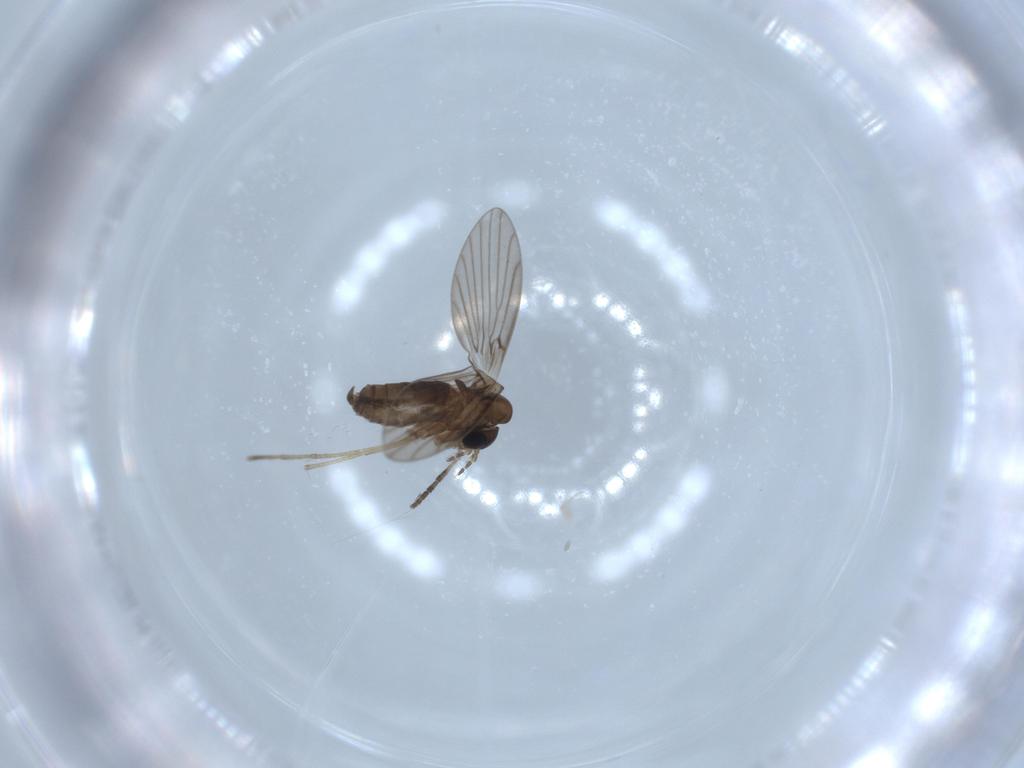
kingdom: Animalia
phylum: Arthropoda
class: Insecta
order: Diptera
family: Psychodidae
